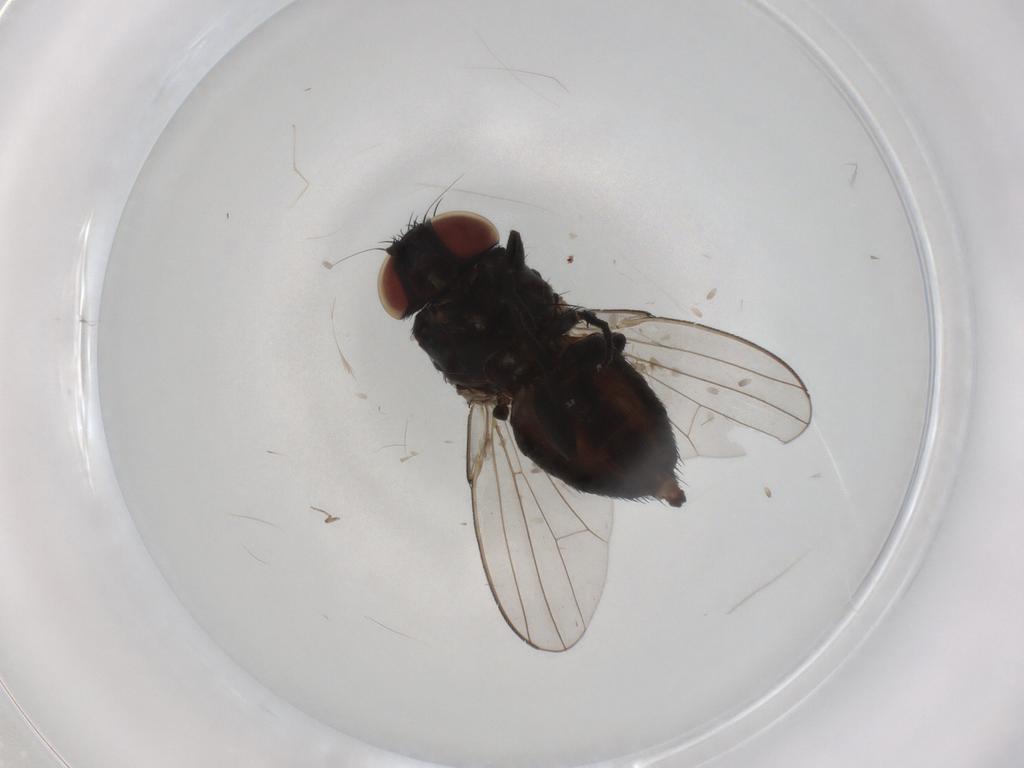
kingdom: Animalia
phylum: Arthropoda
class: Insecta
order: Diptera
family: Milichiidae
